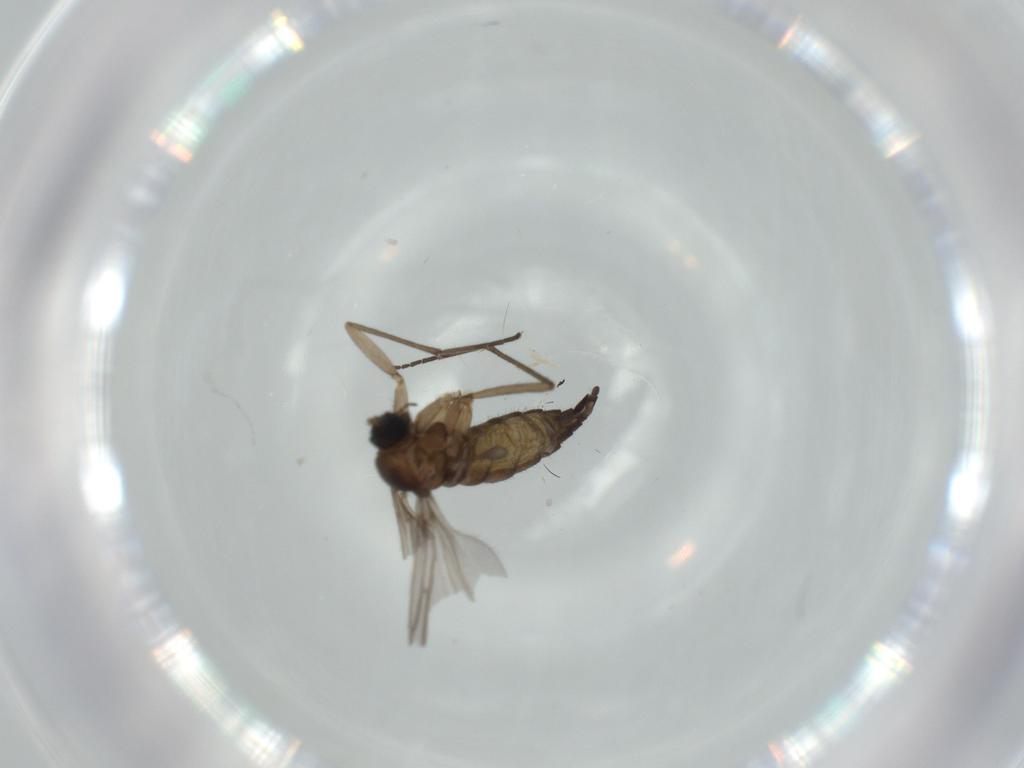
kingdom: Animalia
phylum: Arthropoda
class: Insecta
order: Diptera
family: Sciaridae
